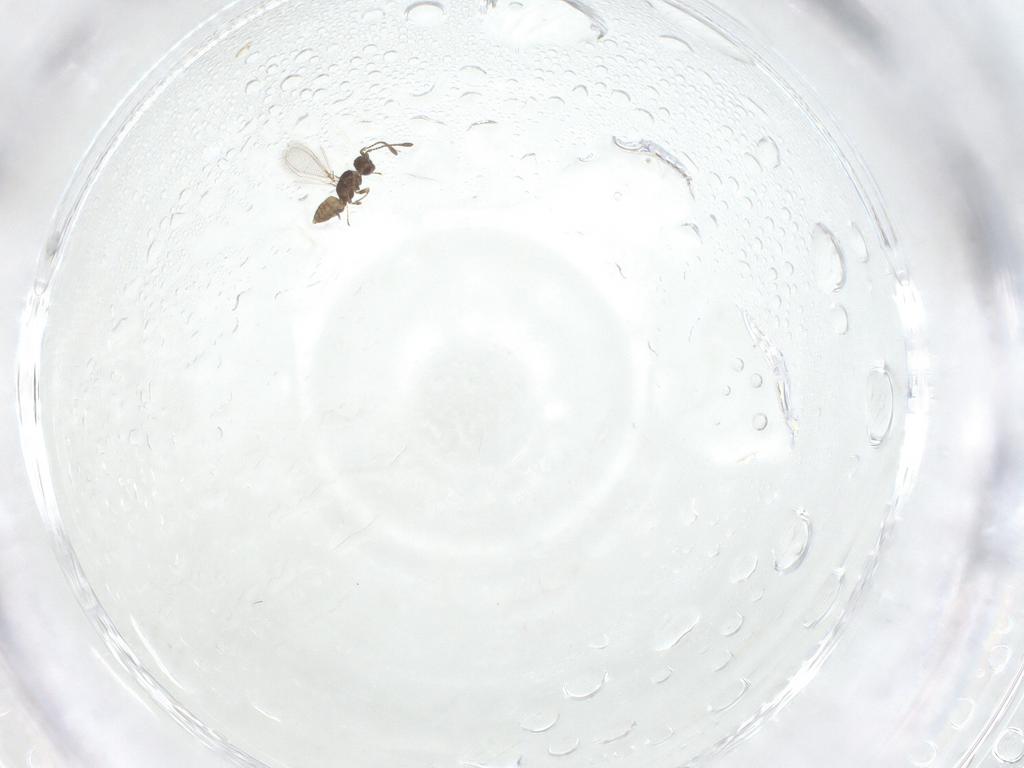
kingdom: Animalia
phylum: Arthropoda
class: Insecta
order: Hymenoptera
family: Mymaridae
